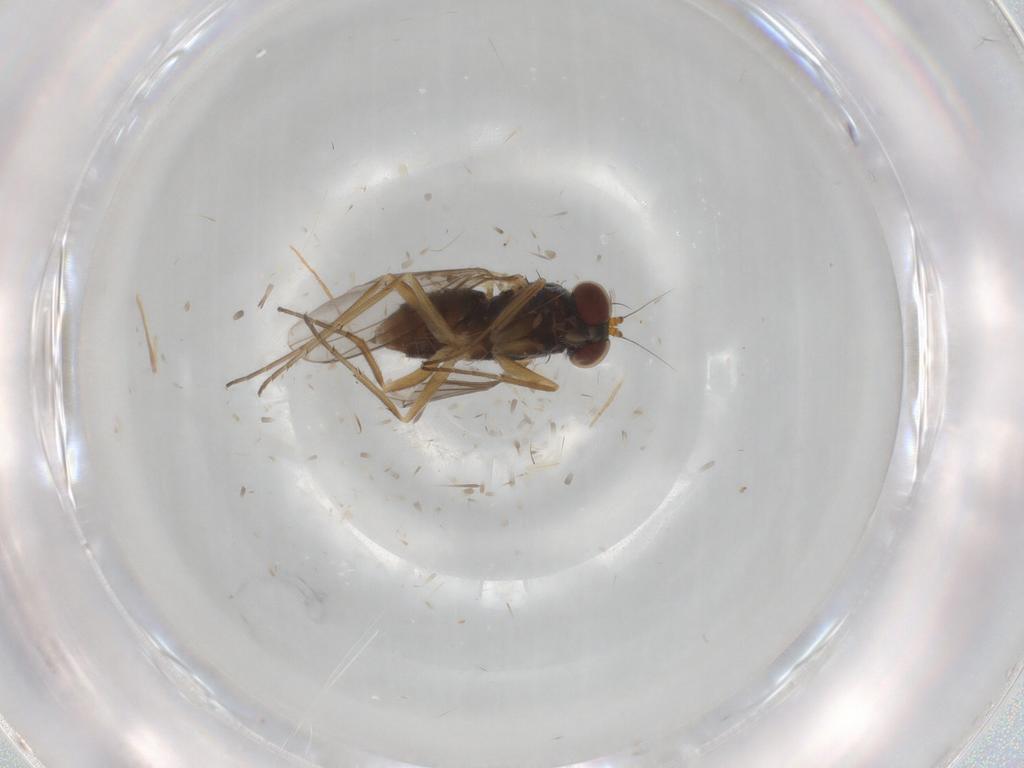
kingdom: Animalia
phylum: Arthropoda
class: Insecta
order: Diptera
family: Dolichopodidae
